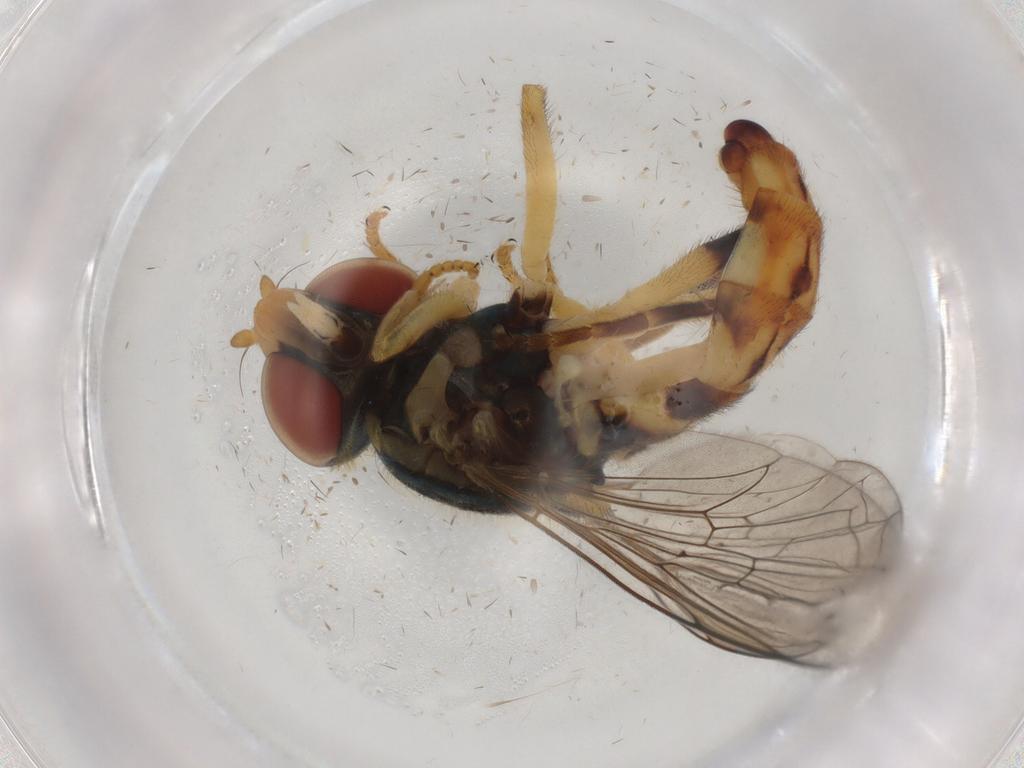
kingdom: Animalia
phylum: Arthropoda
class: Insecta
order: Diptera
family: Syrphidae
